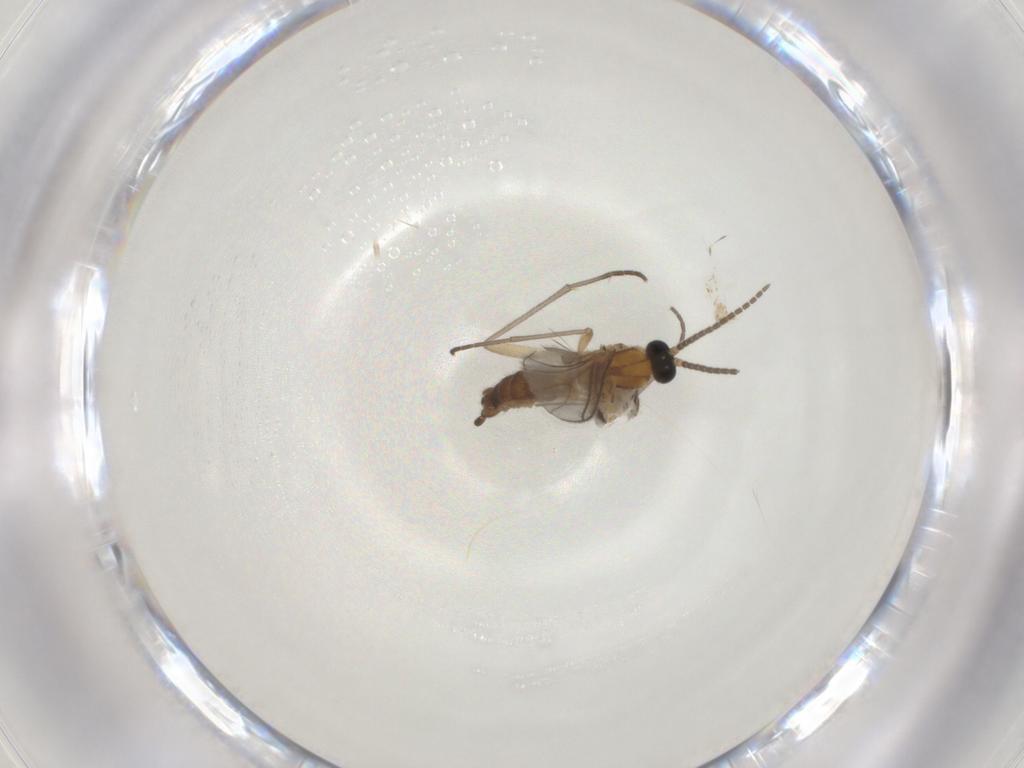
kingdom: Animalia
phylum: Arthropoda
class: Insecta
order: Diptera
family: Sciaridae
